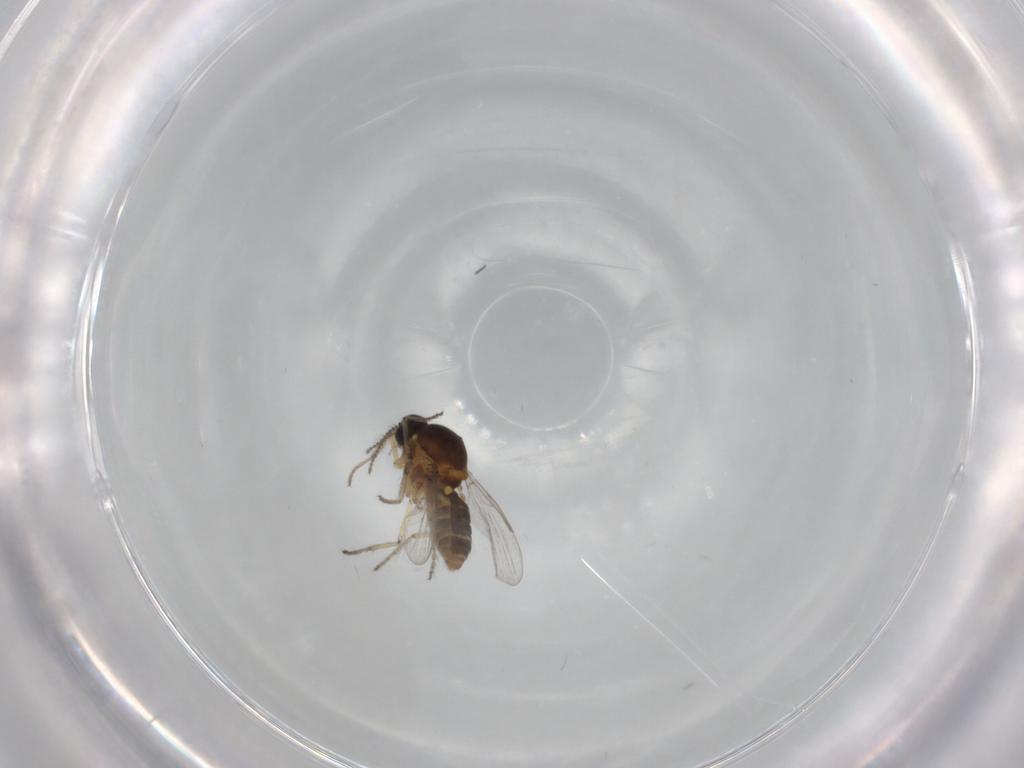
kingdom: Animalia
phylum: Arthropoda
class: Insecta
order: Diptera
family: Ceratopogonidae
